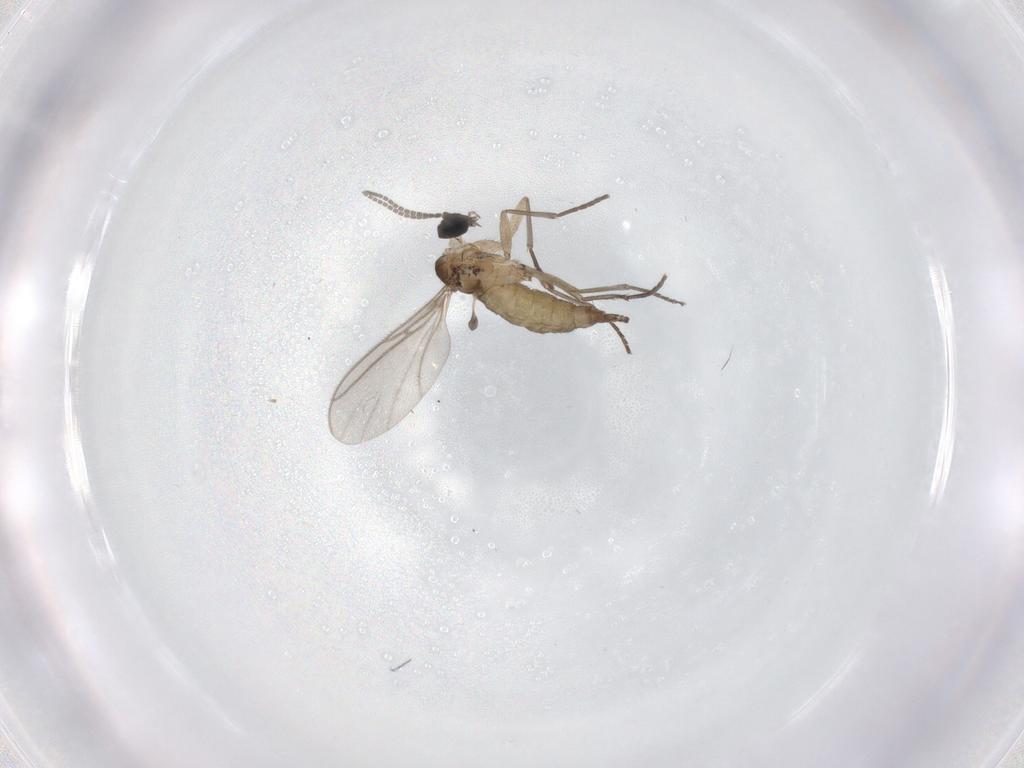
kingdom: Animalia
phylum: Arthropoda
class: Insecta
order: Diptera
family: Sciaridae
